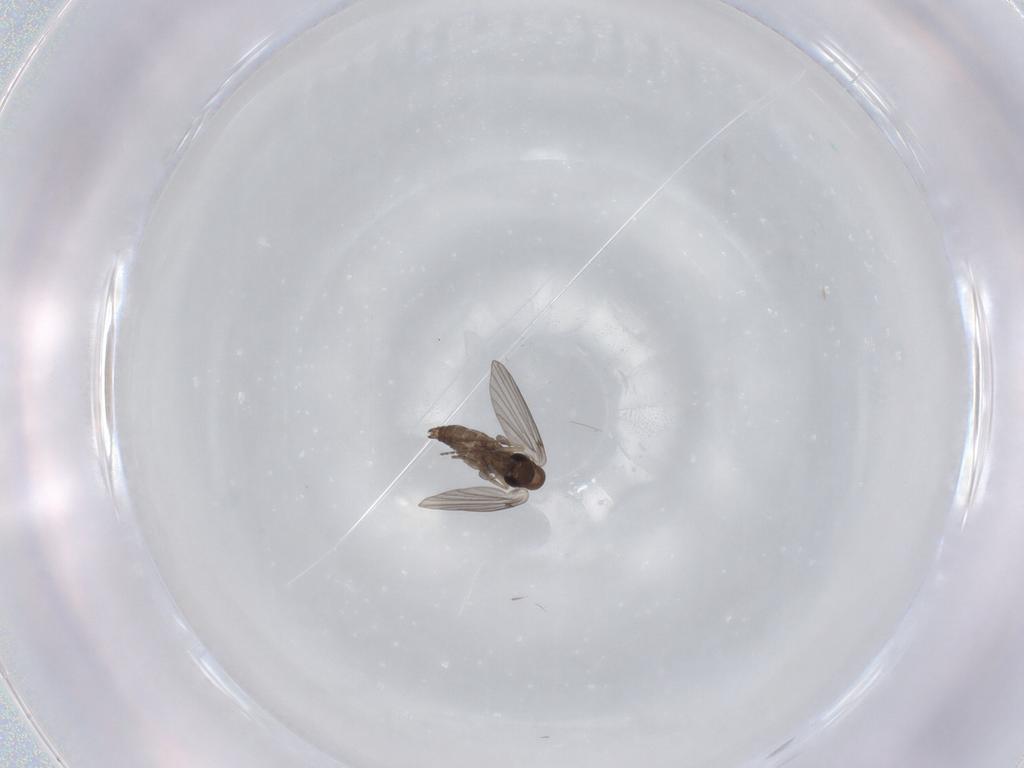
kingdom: Animalia
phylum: Arthropoda
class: Insecta
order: Diptera
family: Psychodidae
